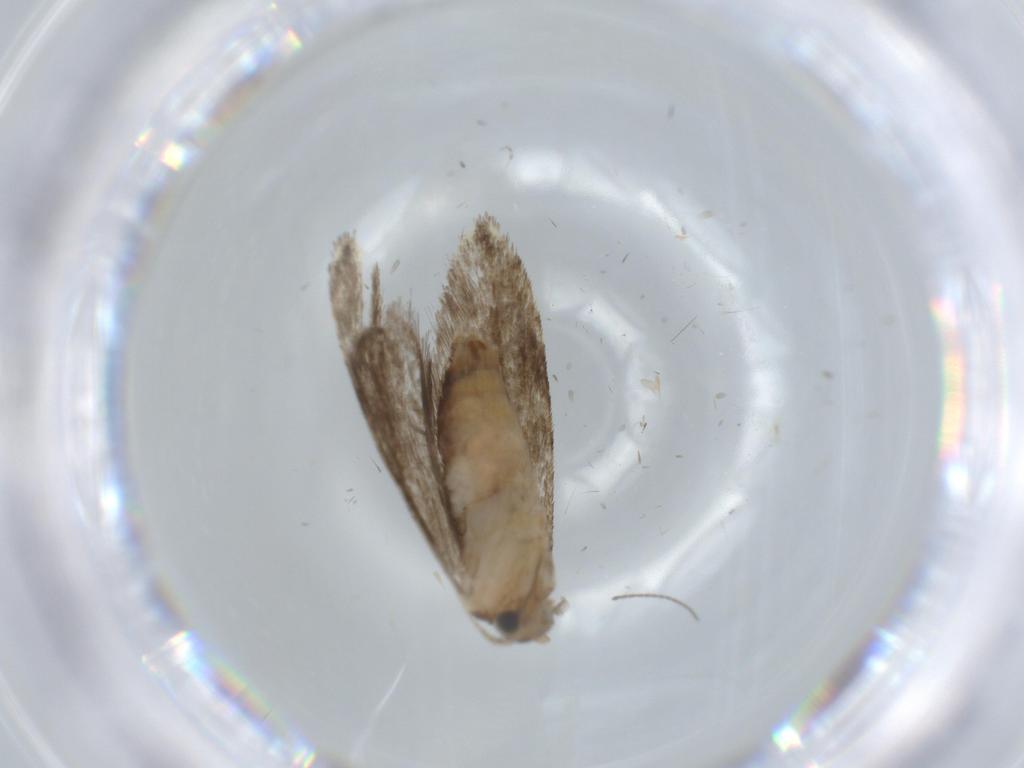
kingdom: Animalia
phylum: Arthropoda
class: Insecta
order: Lepidoptera
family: Tineidae
